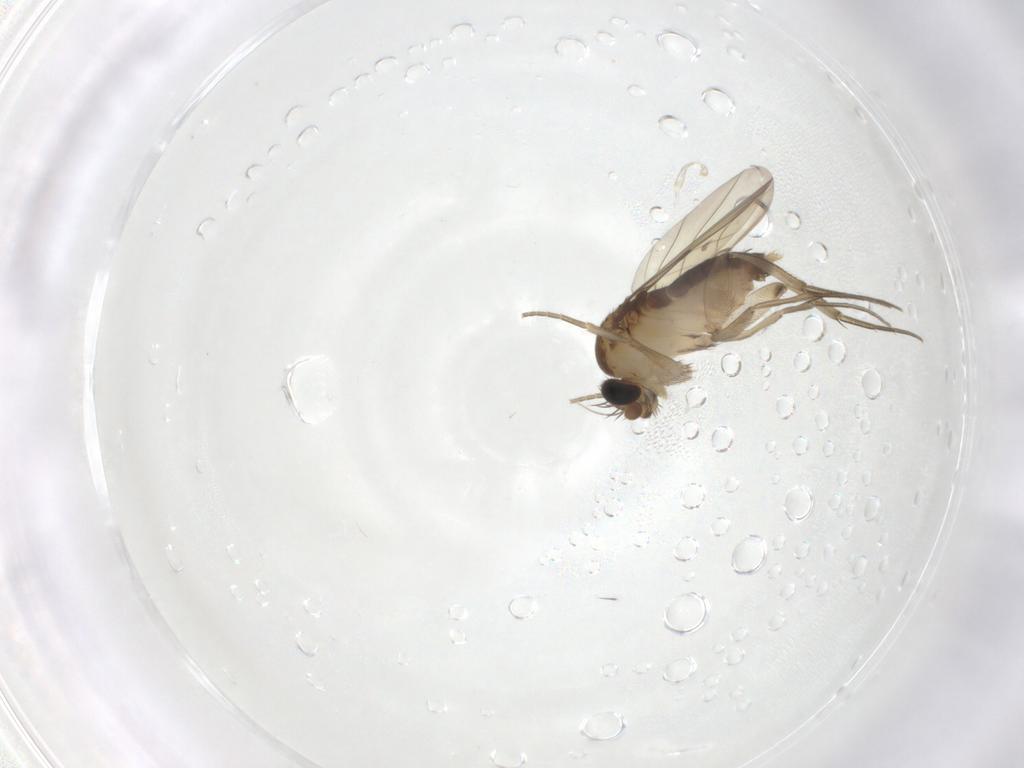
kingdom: Animalia
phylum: Arthropoda
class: Insecta
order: Diptera
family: Phoridae
